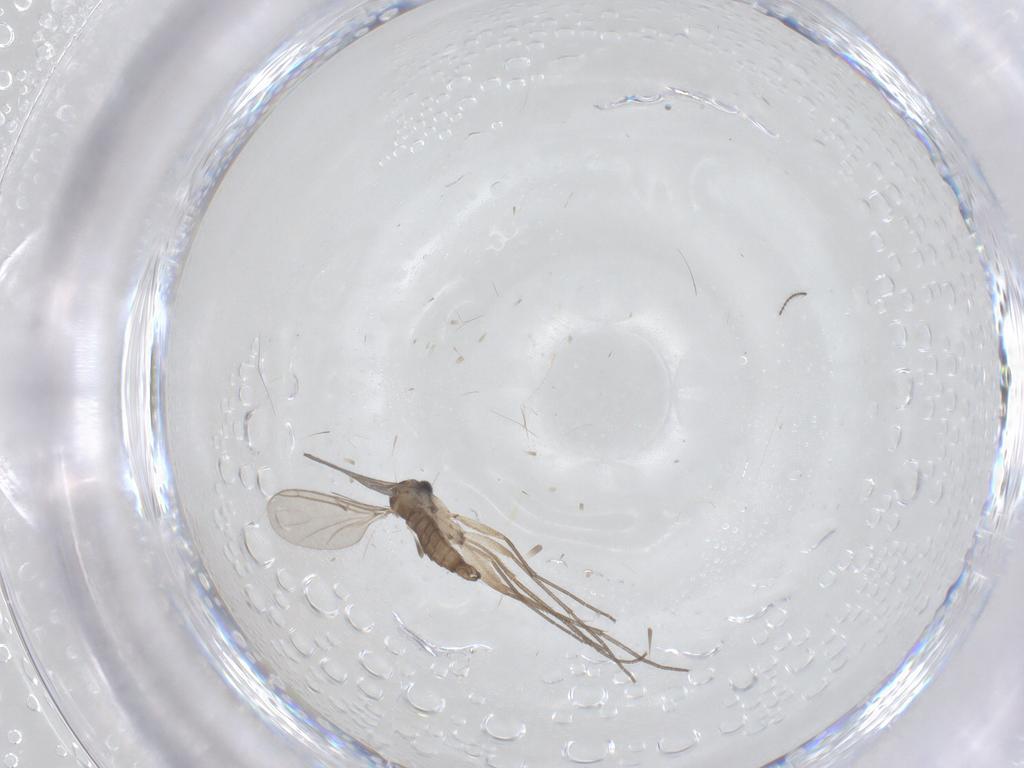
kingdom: Animalia
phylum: Arthropoda
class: Insecta
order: Diptera
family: Sciaridae
